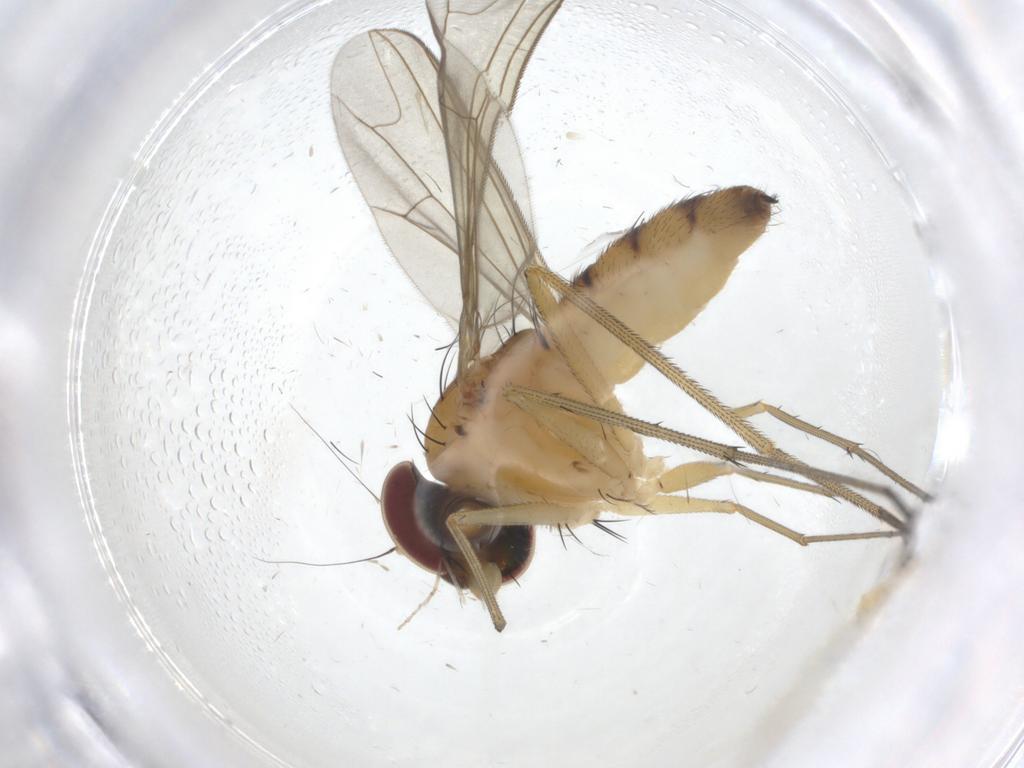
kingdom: Animalia
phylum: Arthropoda
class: Insecta
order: Diptera
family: Dolichopodidae
